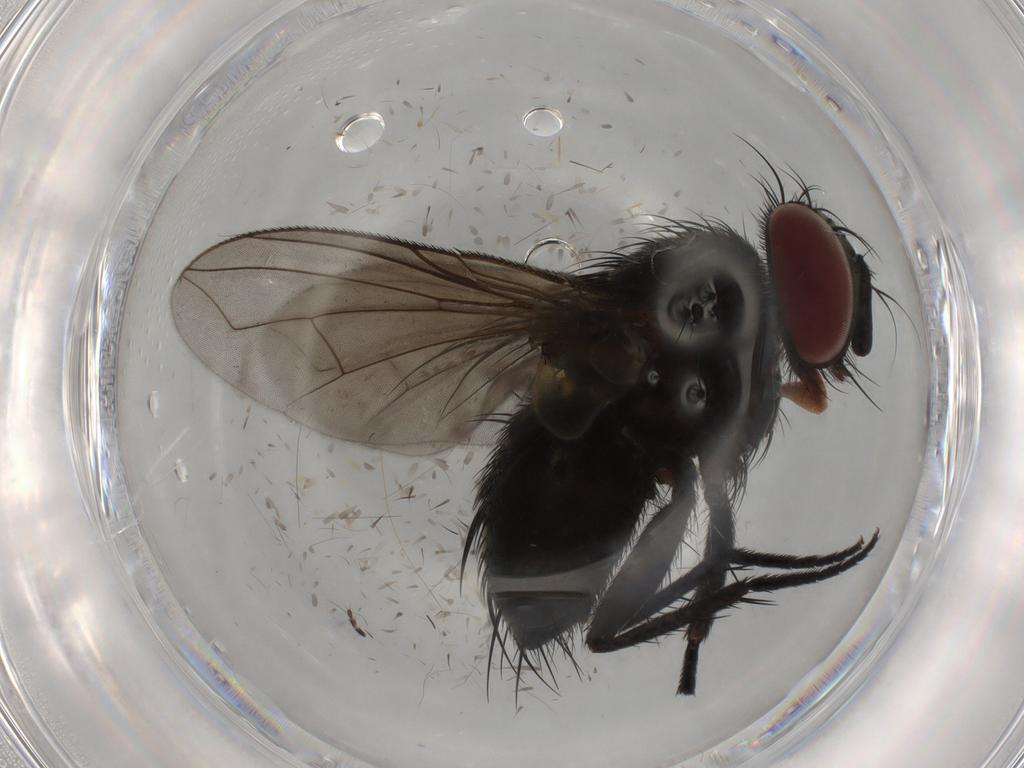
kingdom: Animalia
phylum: Arthropoda
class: Insecta
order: Diptera
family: Tachinidae
